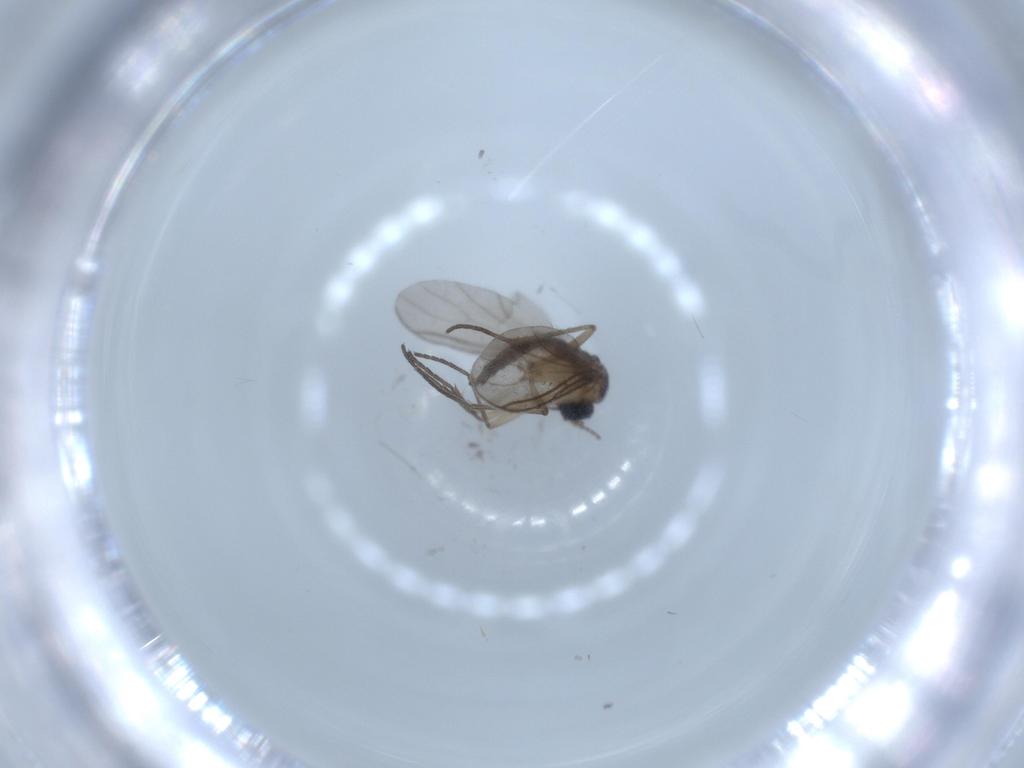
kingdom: Animalia
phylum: Arthropoda
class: Insecta
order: Diptera
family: Sciaridae
